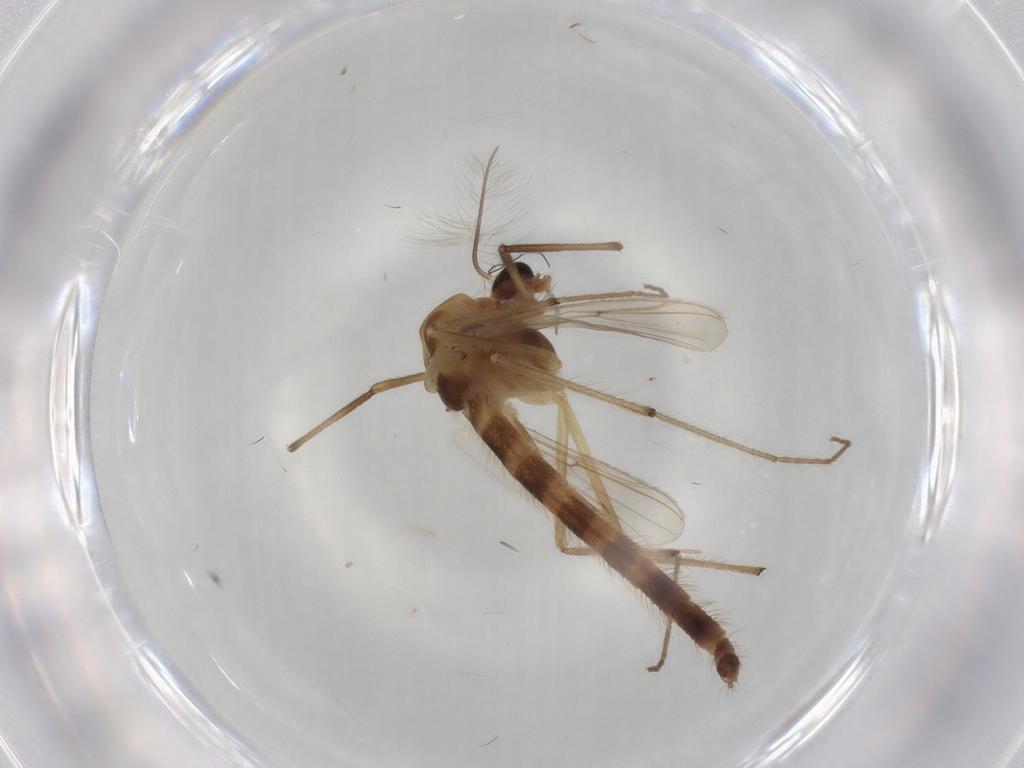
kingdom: Animalia
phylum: Arthropoda
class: Insecta
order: Diptera
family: Chironomidae
